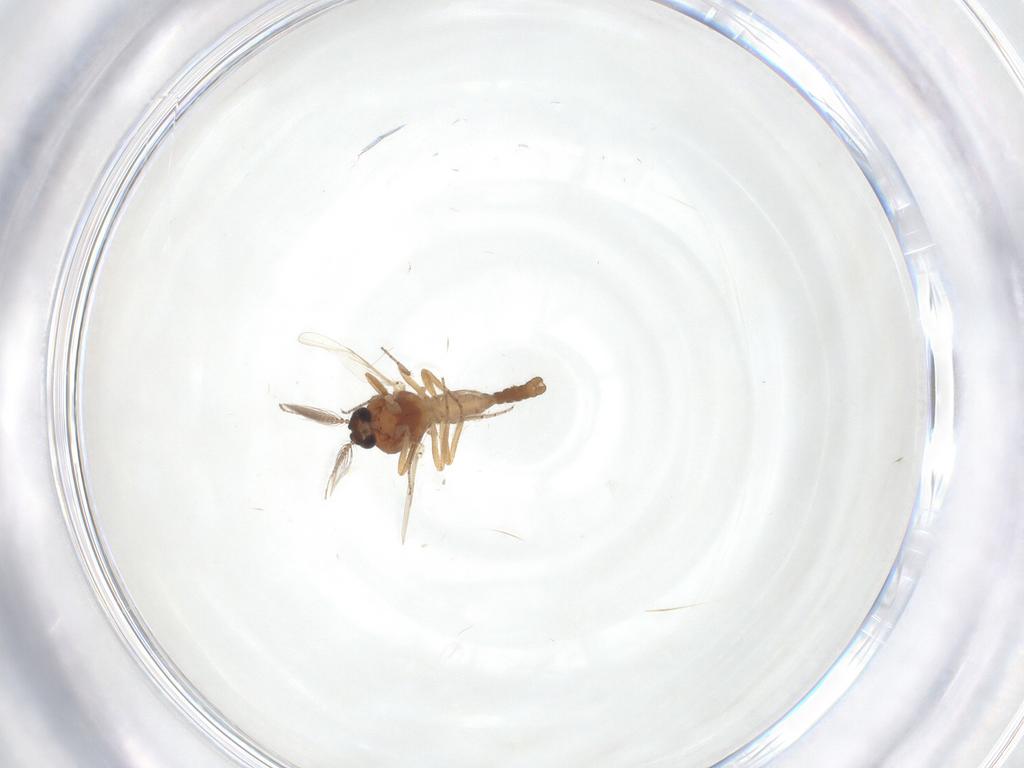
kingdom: Animalia
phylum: Arthropoda
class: Insecta
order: Diptera
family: Ceratopogonidae
